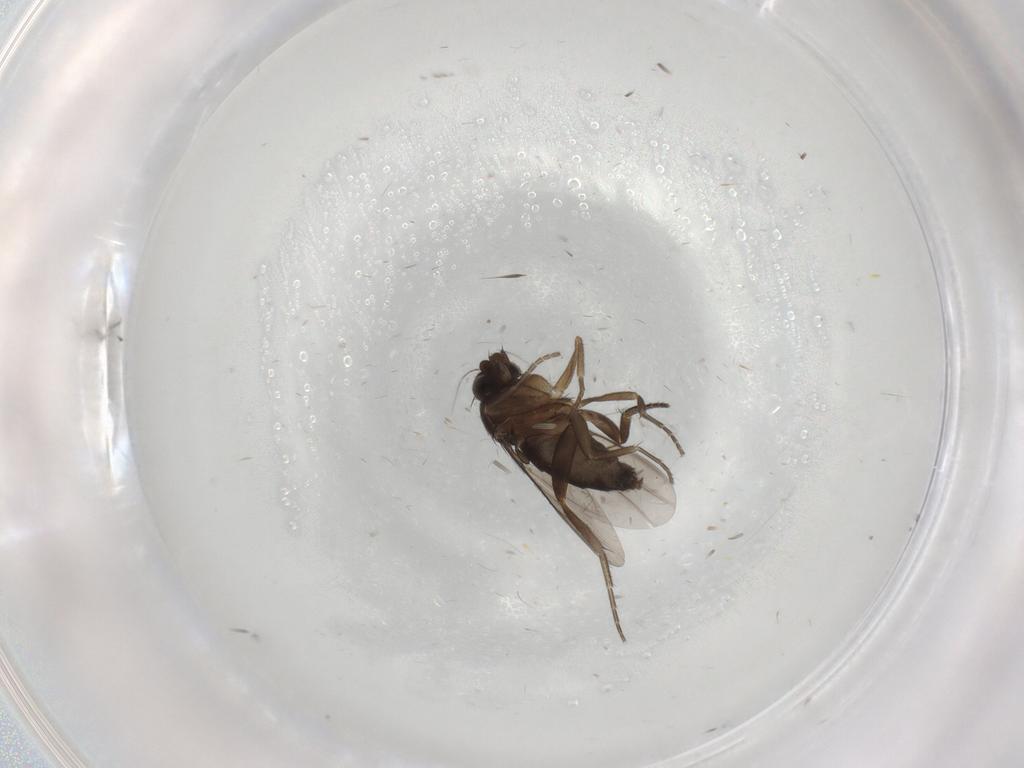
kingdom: Animalia
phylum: Arthropoda
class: Insecta
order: Diptera
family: Phoridae
